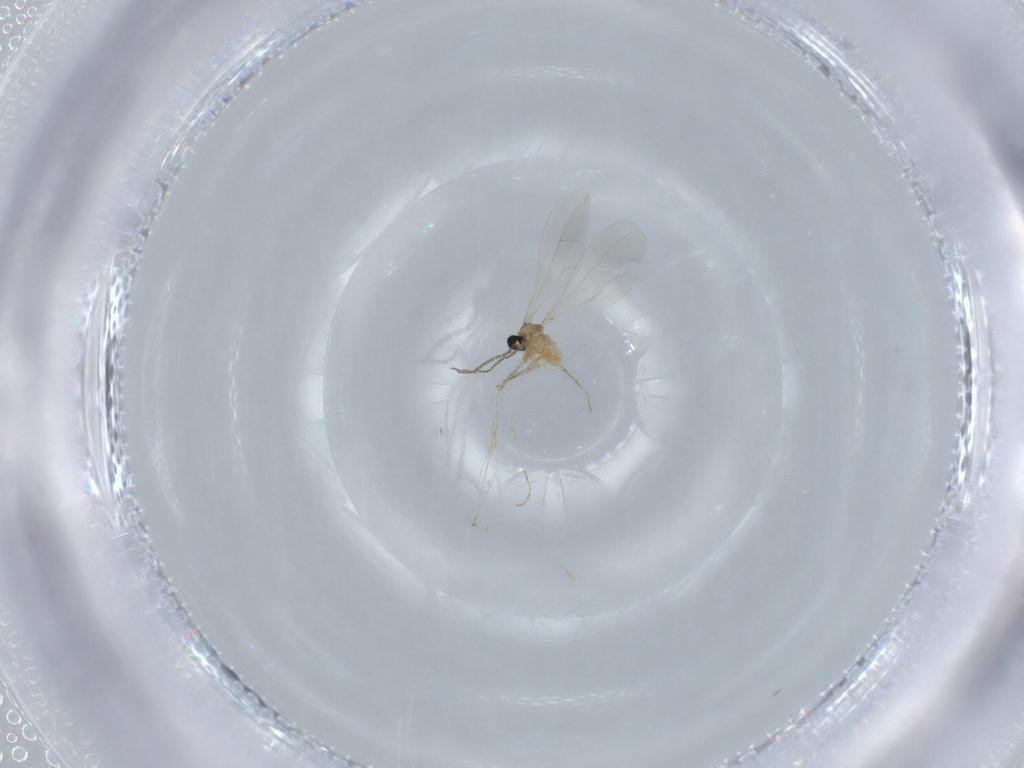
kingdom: Animalia
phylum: Arthropoda
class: Insecta
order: Diptera
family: Cecidomyiidae
